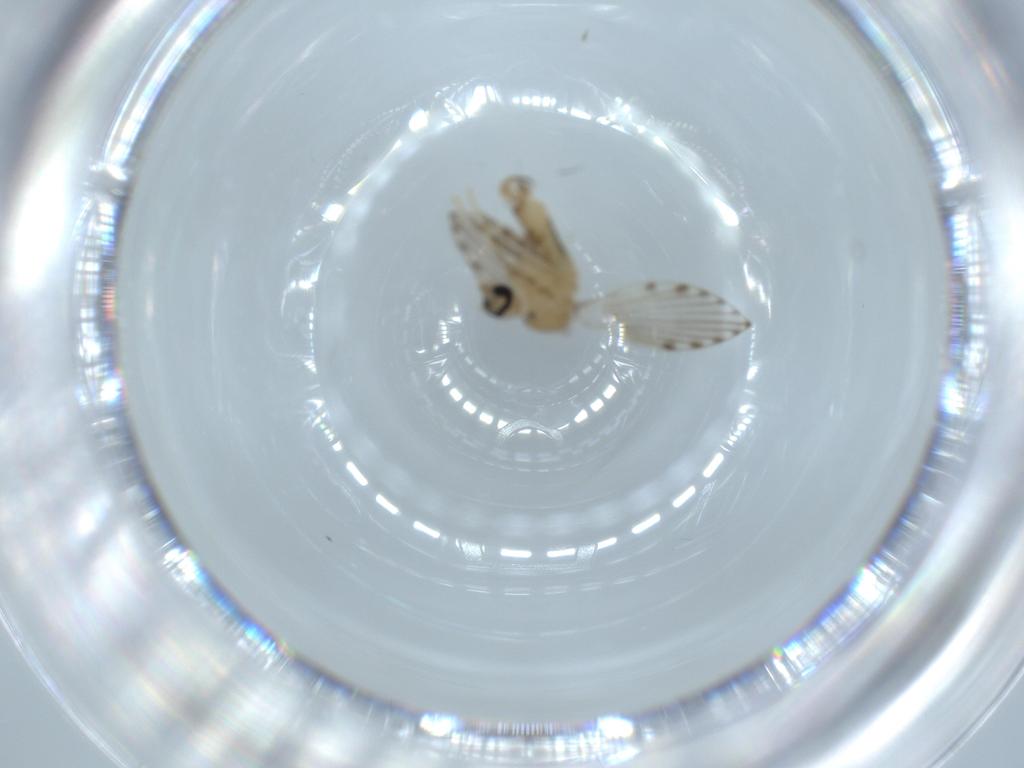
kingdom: Animalia
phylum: Arthropoda
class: Insecta
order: Diptera
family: Psychodidae
